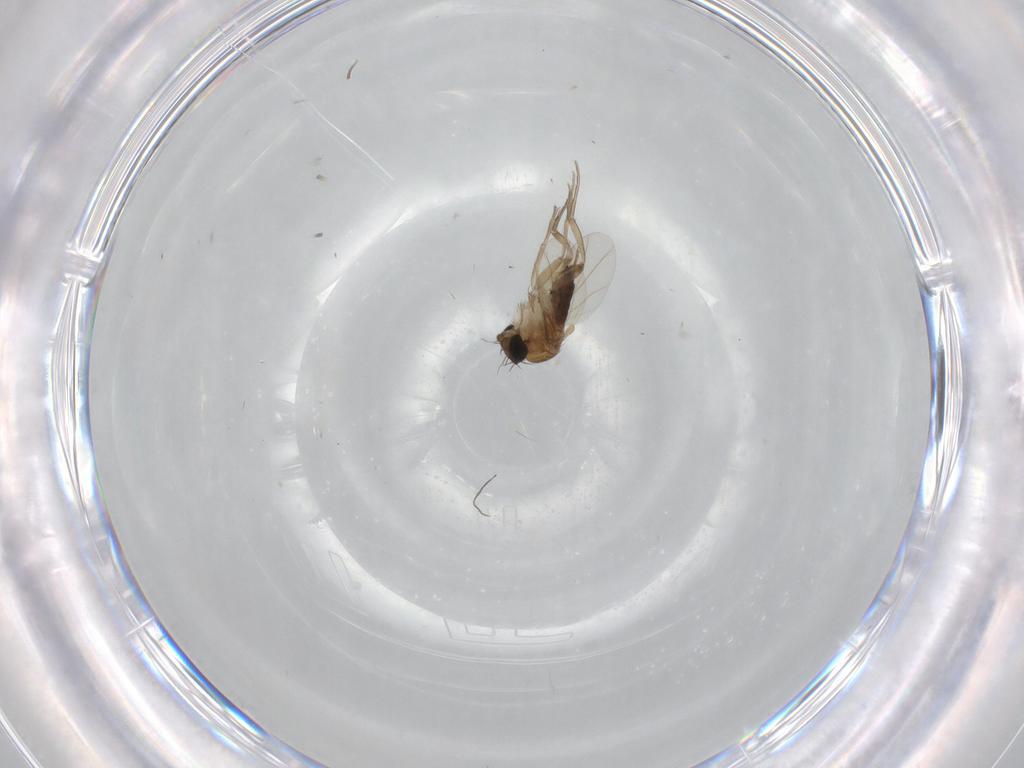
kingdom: Animalia
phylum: Arthropoda
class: Insecta
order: Diptera
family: Phoridae
